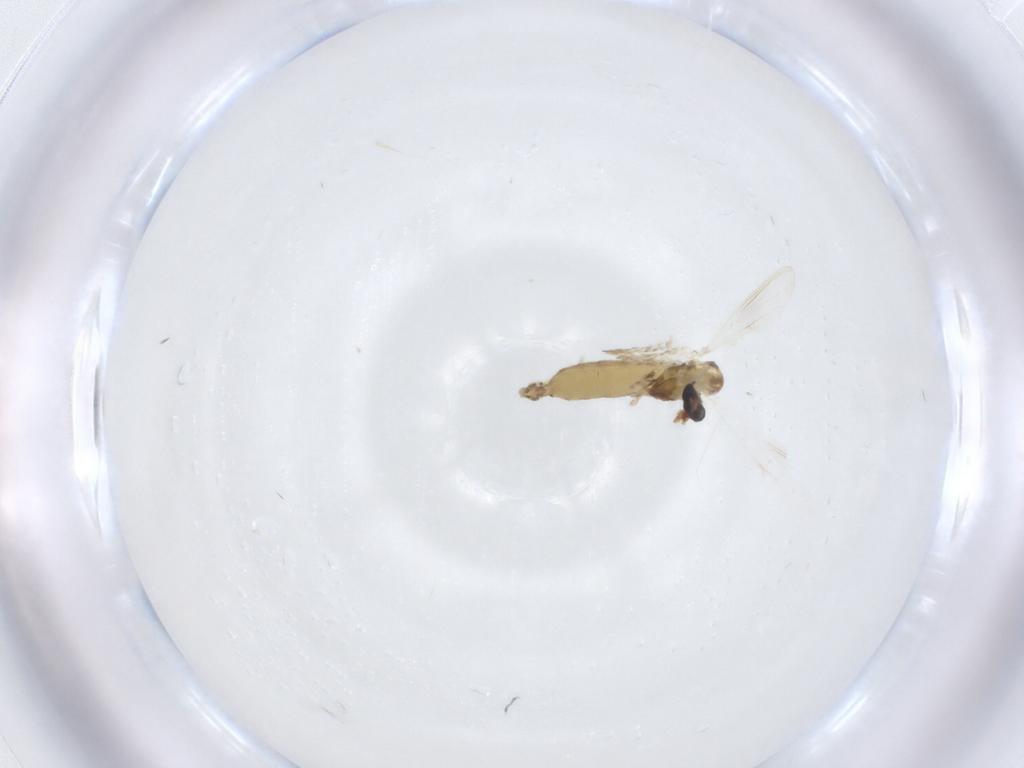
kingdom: Animalia
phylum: Arthropoda
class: Insecta
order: Diptera
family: Chironomidae
